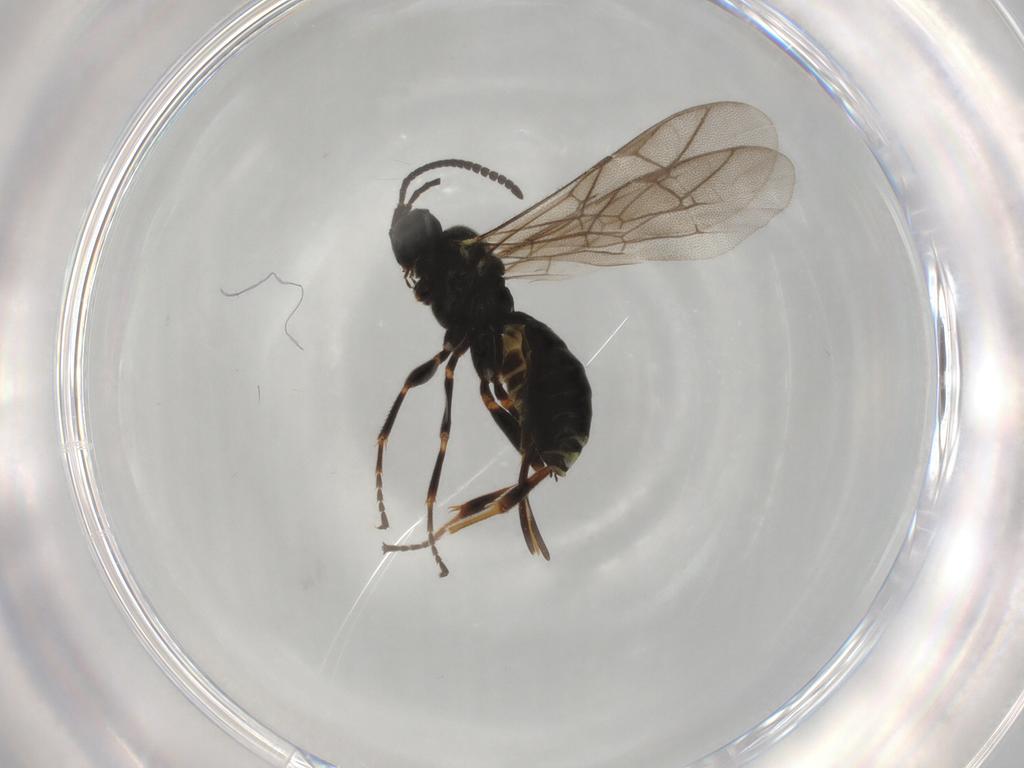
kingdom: Animalia
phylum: Arthropoda
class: Insecta
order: Hymenoptera
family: Ichneumonidae
